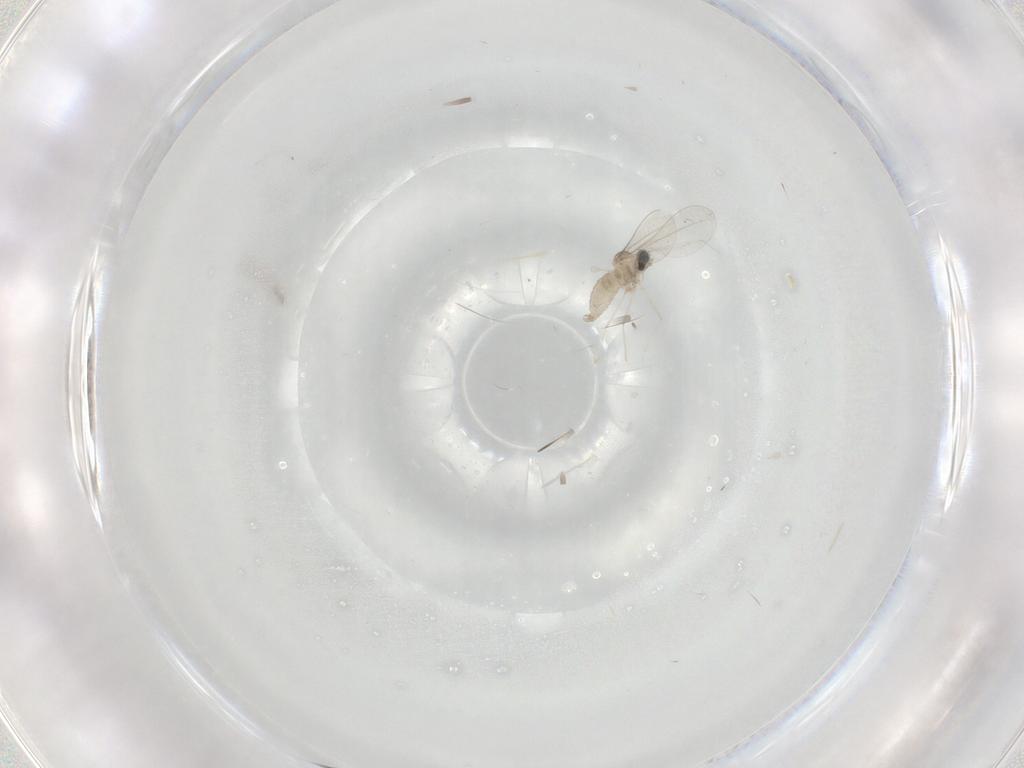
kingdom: Animalia
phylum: Arthropoda
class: Insecta
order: Diptera
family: Cecidomyiidae
